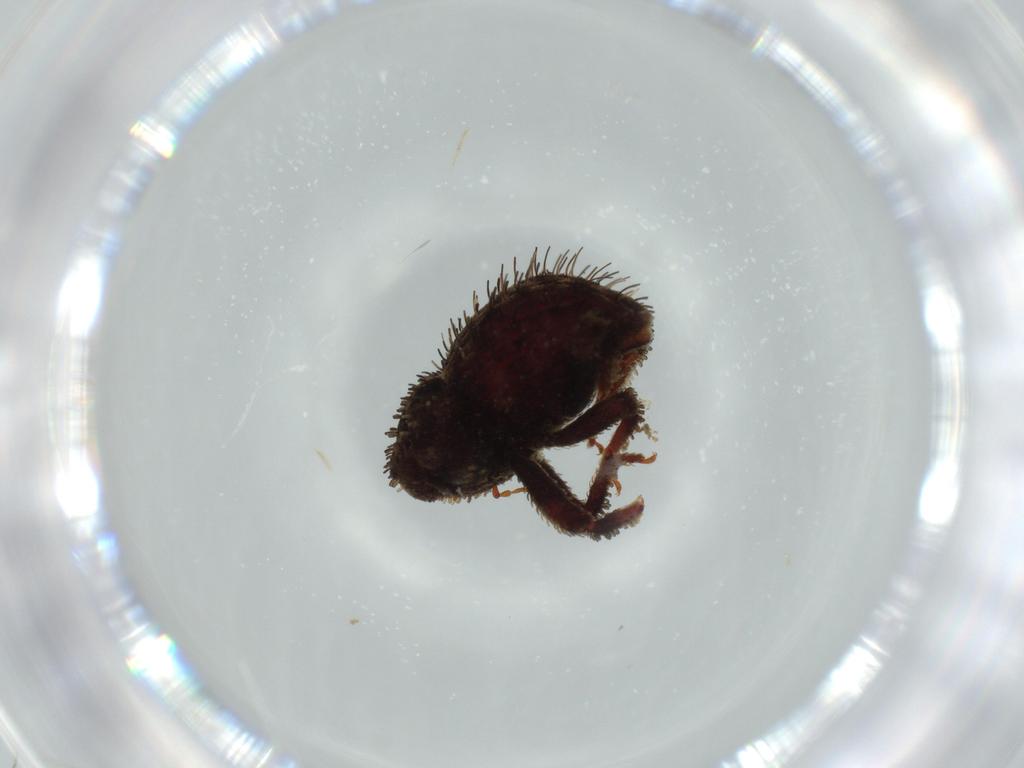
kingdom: Animalia
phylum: Arthropoda
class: Insecta
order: Coleoptera
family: Curculionidae
